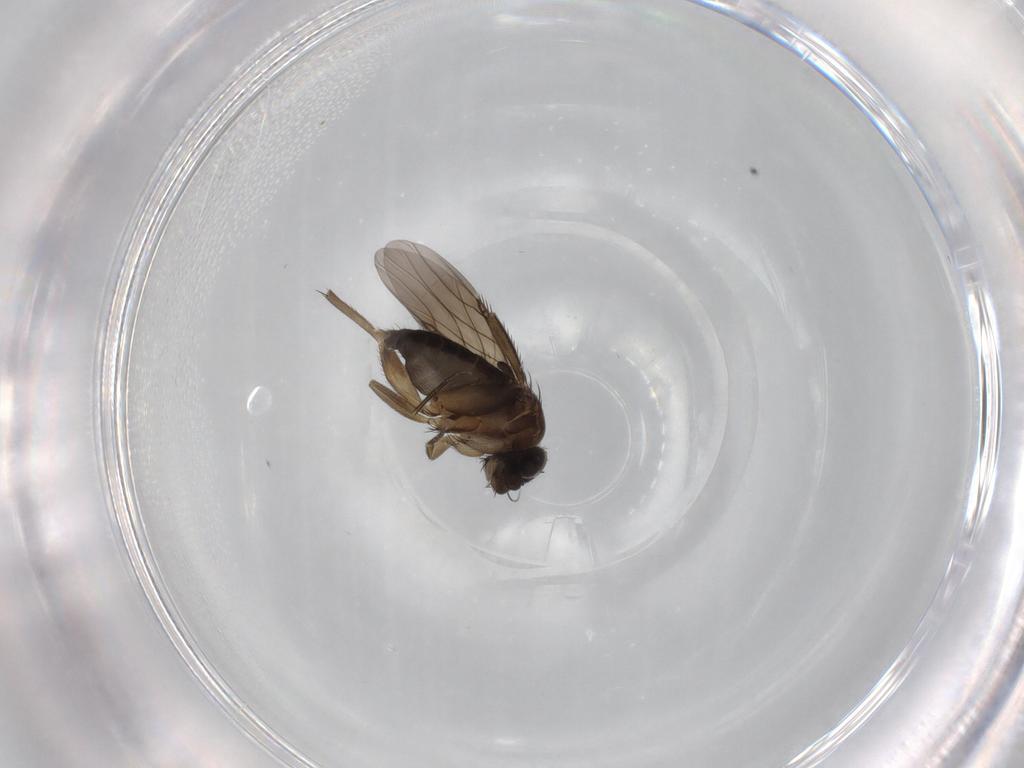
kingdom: Animalia
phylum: Arthropoda
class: Insecta
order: Diptera
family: Phoridae
